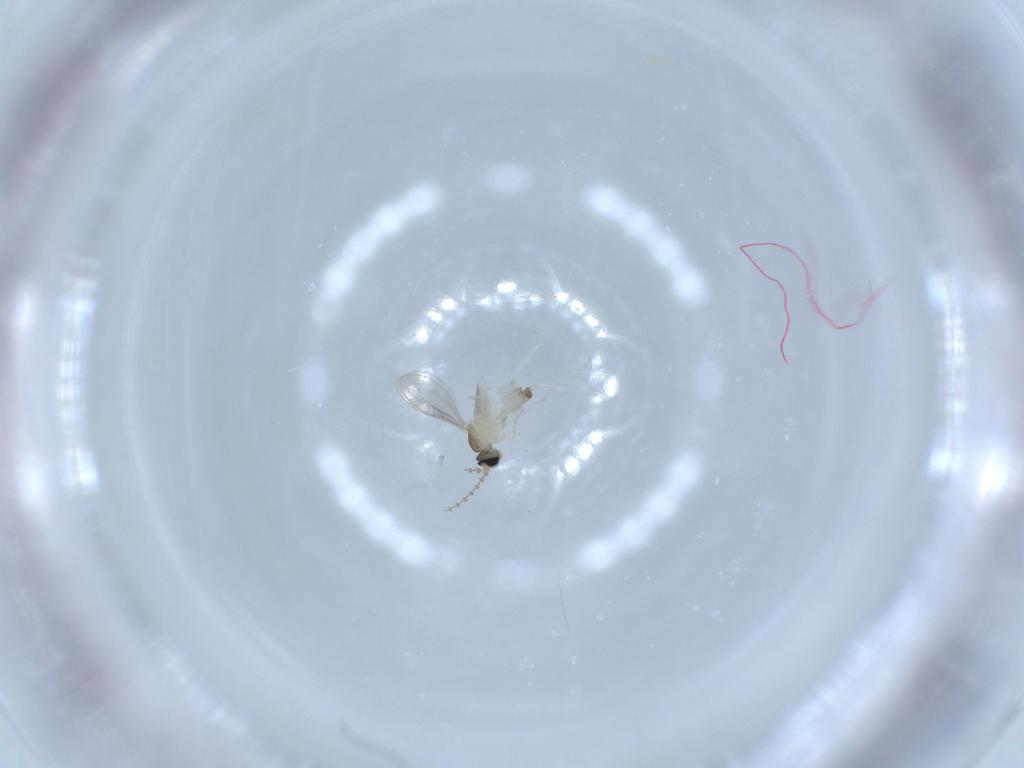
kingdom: Animalia
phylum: Arthropoda
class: Insecta
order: Diptera
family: Cecidomyiidae
